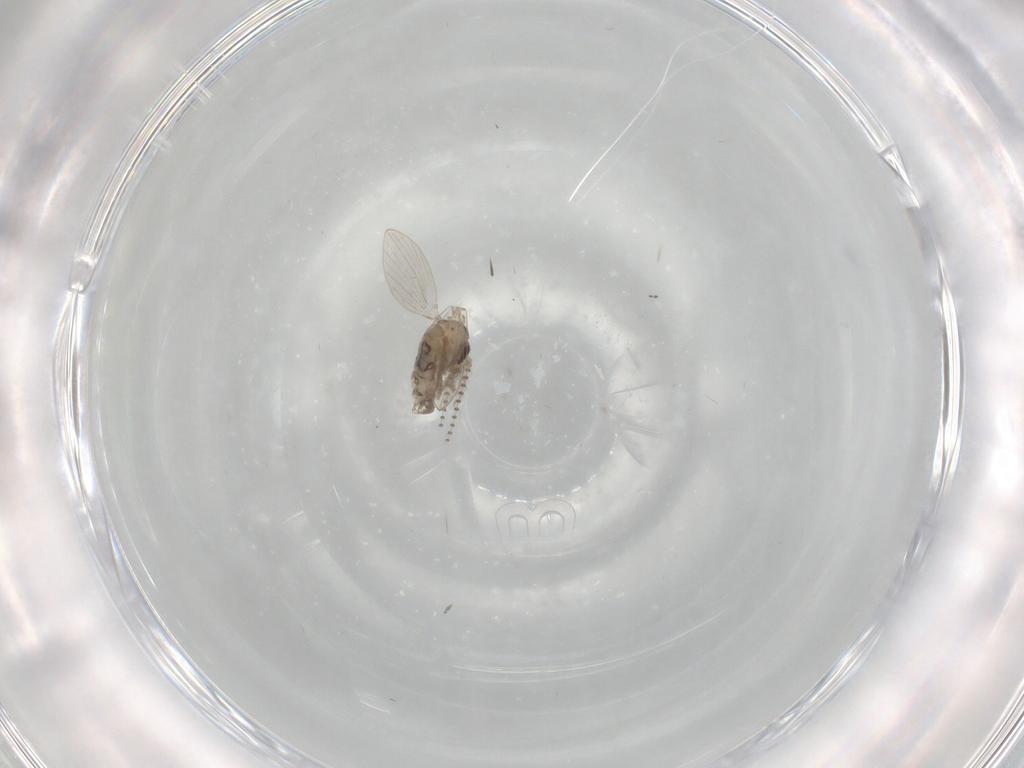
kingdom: Animalia
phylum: Arthropoda
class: Insecta
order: Diptera
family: Psychodidae
